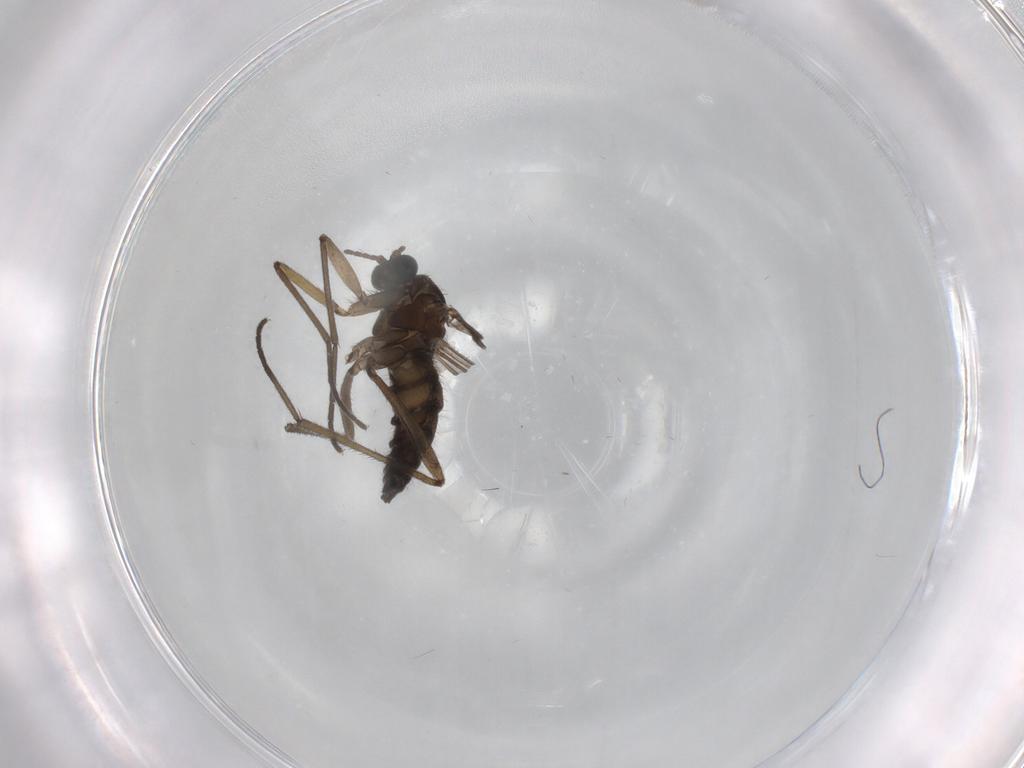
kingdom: Animalia
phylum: Arthropoda
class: Insecta
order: Diptera
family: Sciaridae
